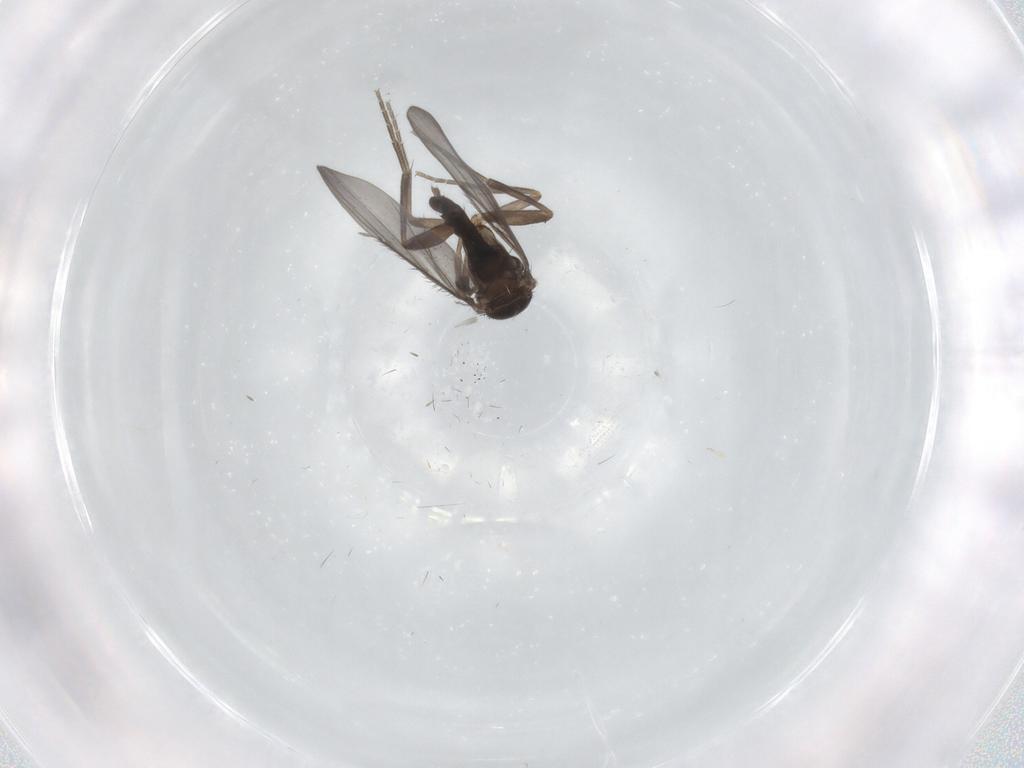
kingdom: Animalia
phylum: Arthropoda
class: Insecta
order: Diptera
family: Phoridae
